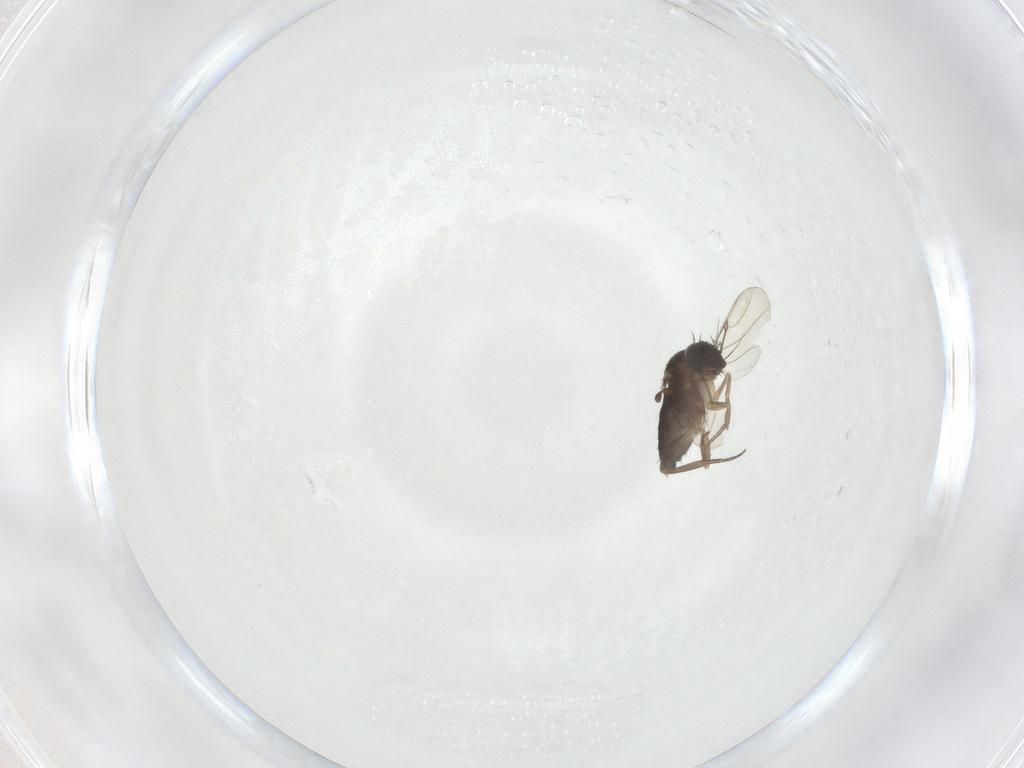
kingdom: Animalia
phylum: Arthropoda
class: Insecta
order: Diptera
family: Phoridae
